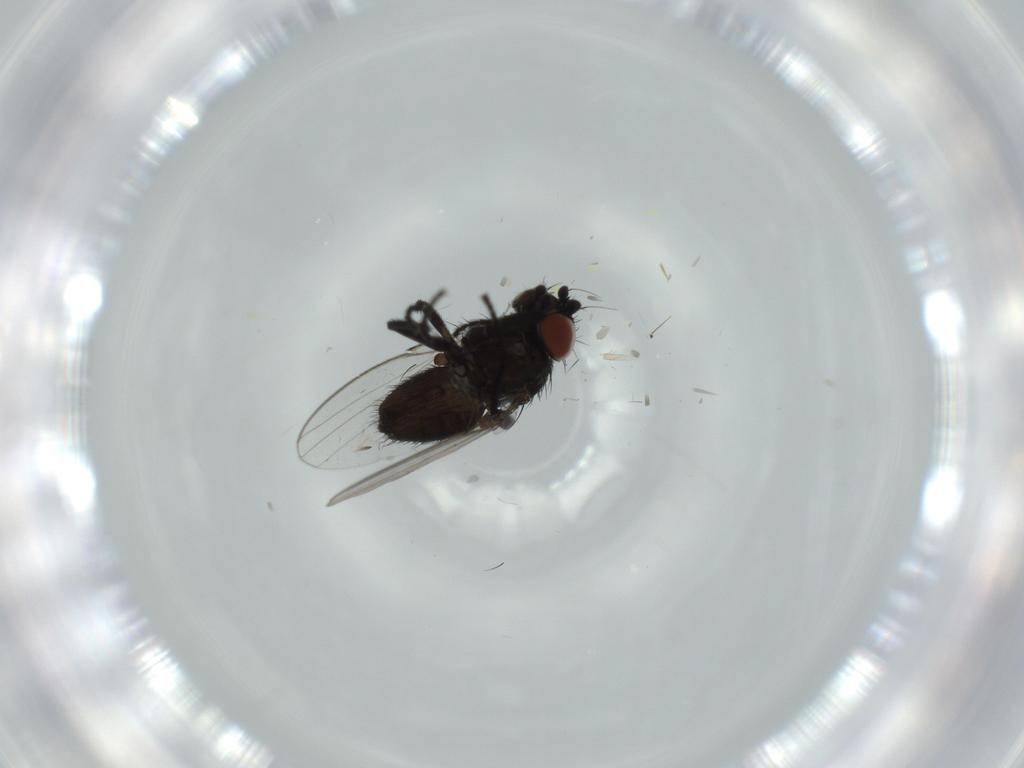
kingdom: Animalia
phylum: Arthropoda
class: Insecta
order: Diptera
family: Milichiidae
